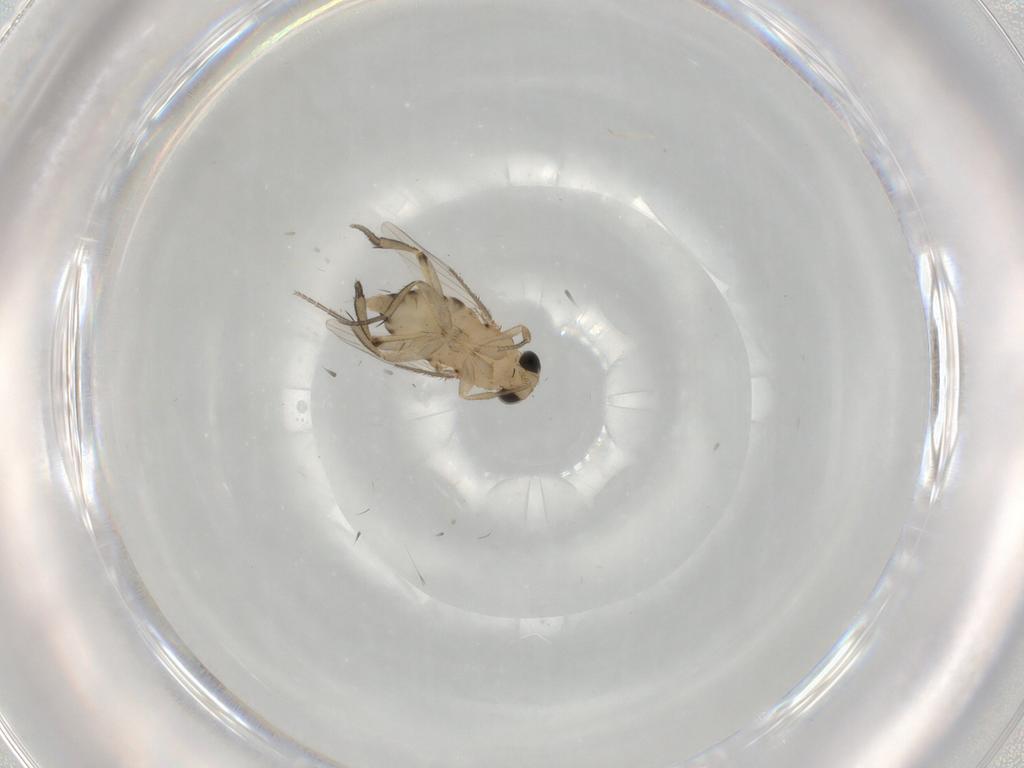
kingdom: Animalia
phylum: Arthropoda
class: Insecta
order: Diptera
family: Phoridae
